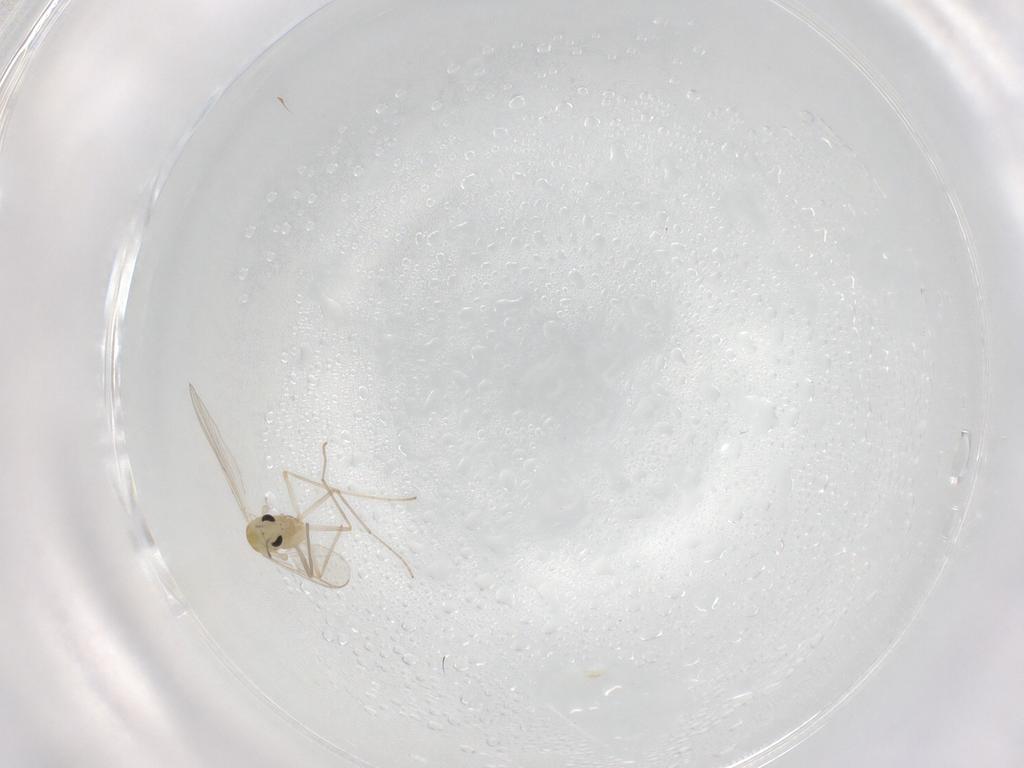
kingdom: Animalia
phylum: Arthropoda
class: Insecta
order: Diptera
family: Chironomidae
